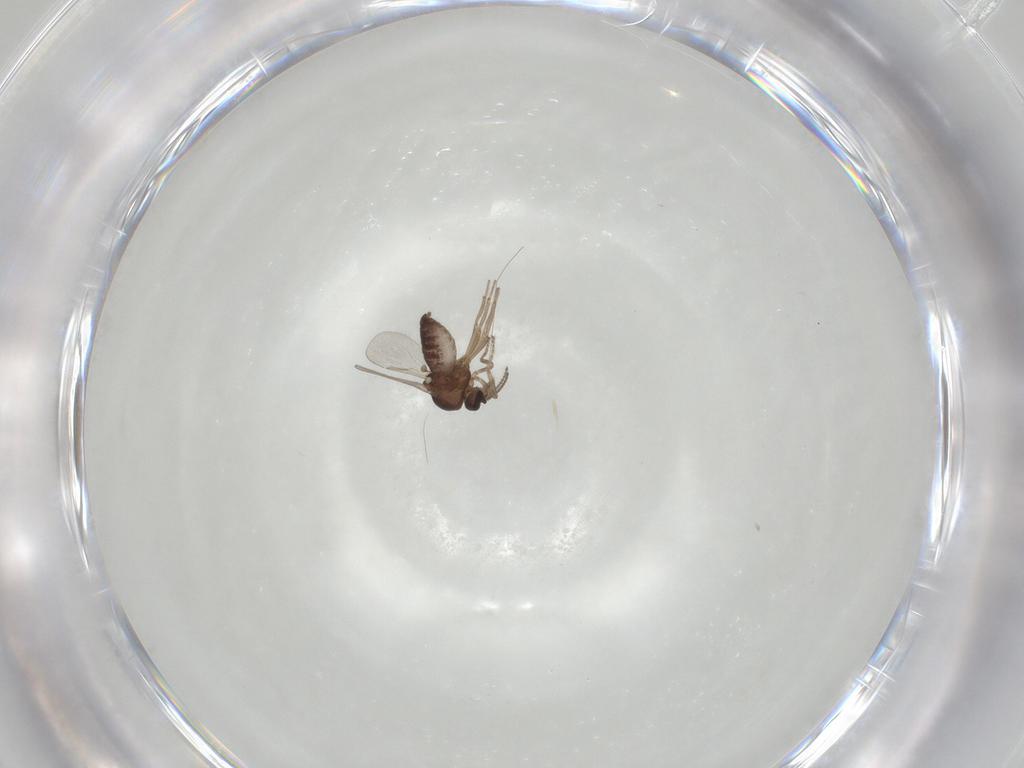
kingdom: Animalia
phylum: Arthropoda
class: Insecta
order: Diptera
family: Ceratopogonidae
